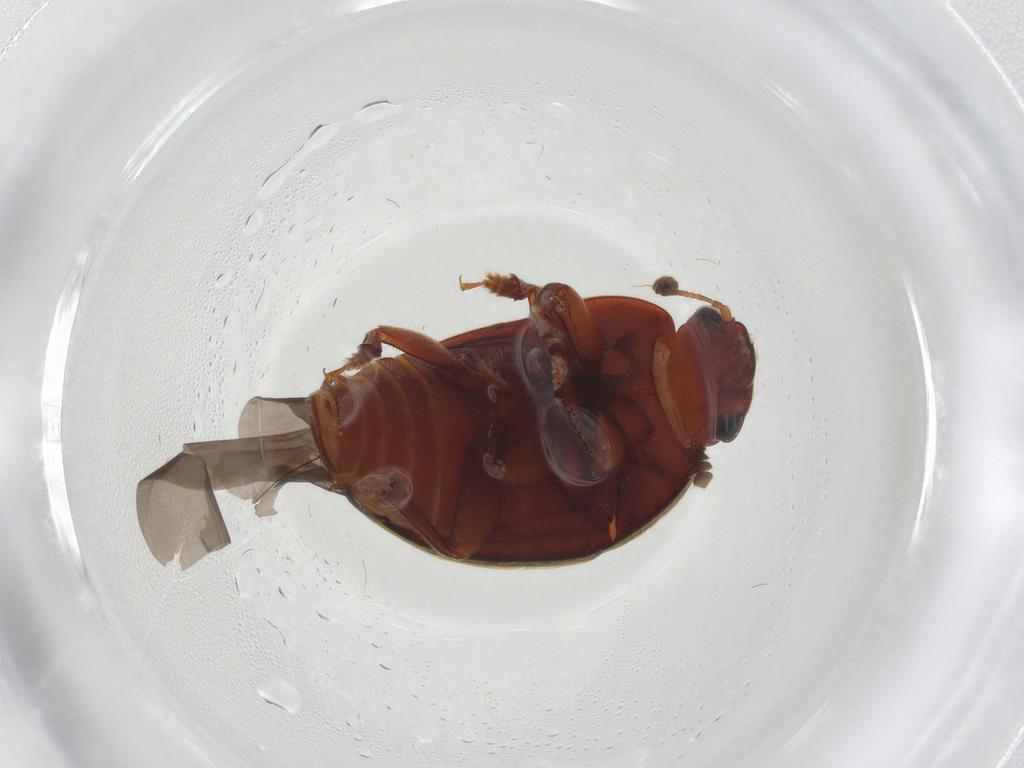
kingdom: Animalia
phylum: Arthropoda
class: Insecta
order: Coleoptera
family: Nitidulidae
